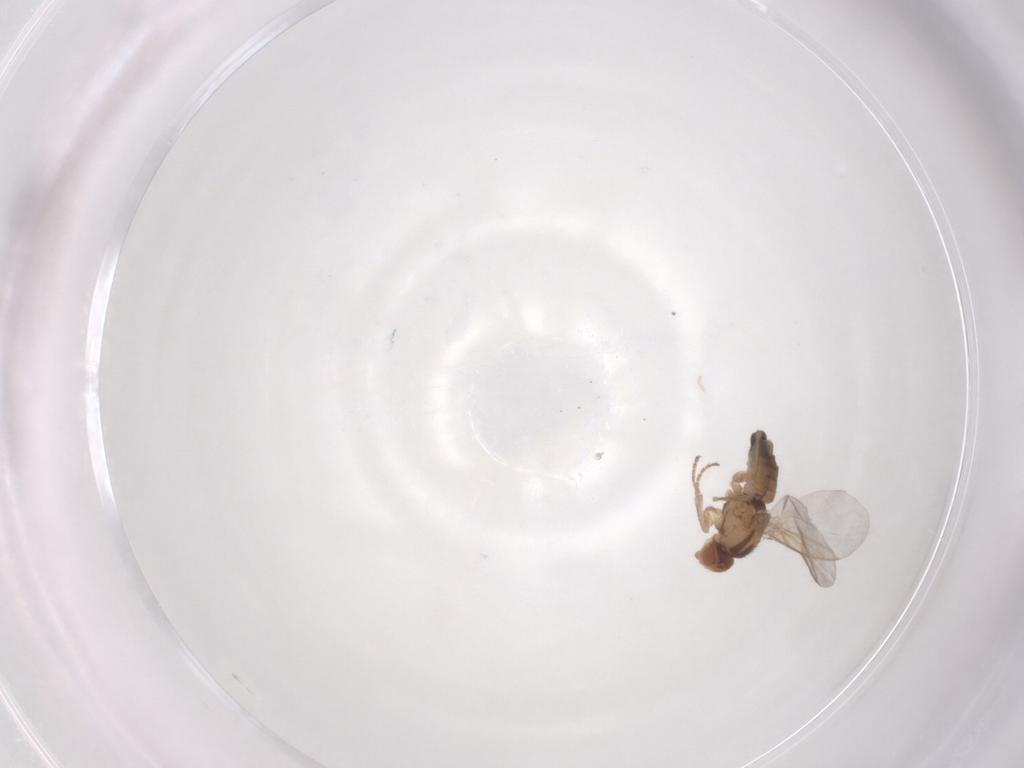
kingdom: Animalia
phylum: Arthropoda
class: Insecta
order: Diptera
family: Agromyzidae
